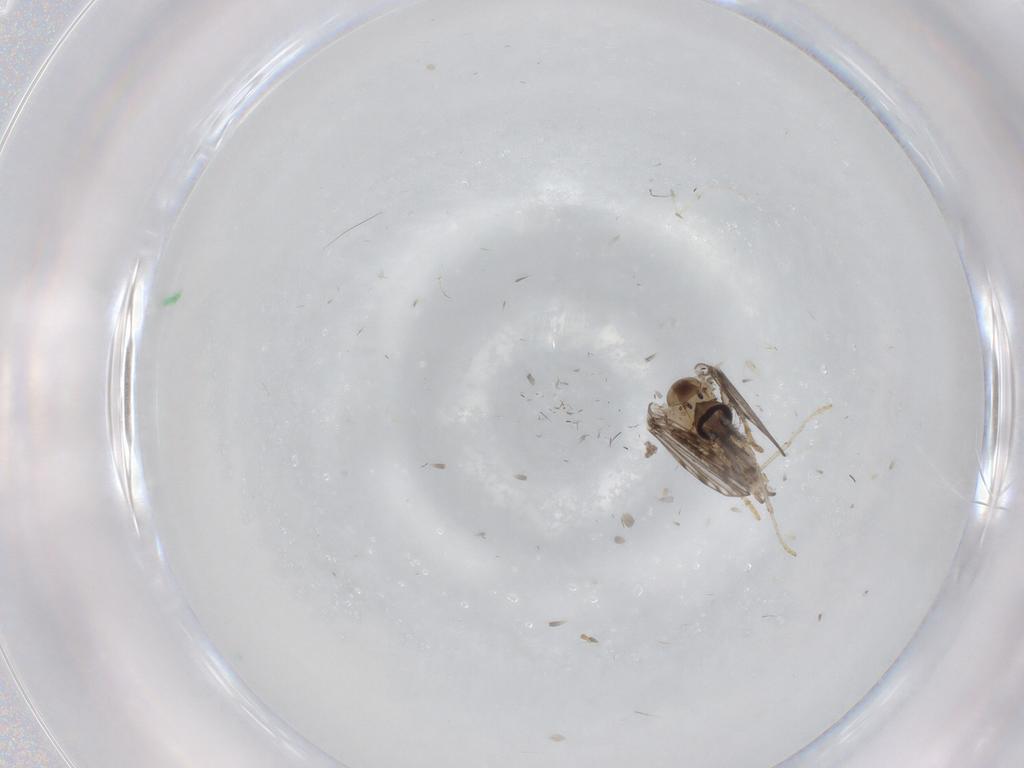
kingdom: Animalia
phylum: Arthropoda
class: Insecta
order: Diptera
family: Psychodidae
